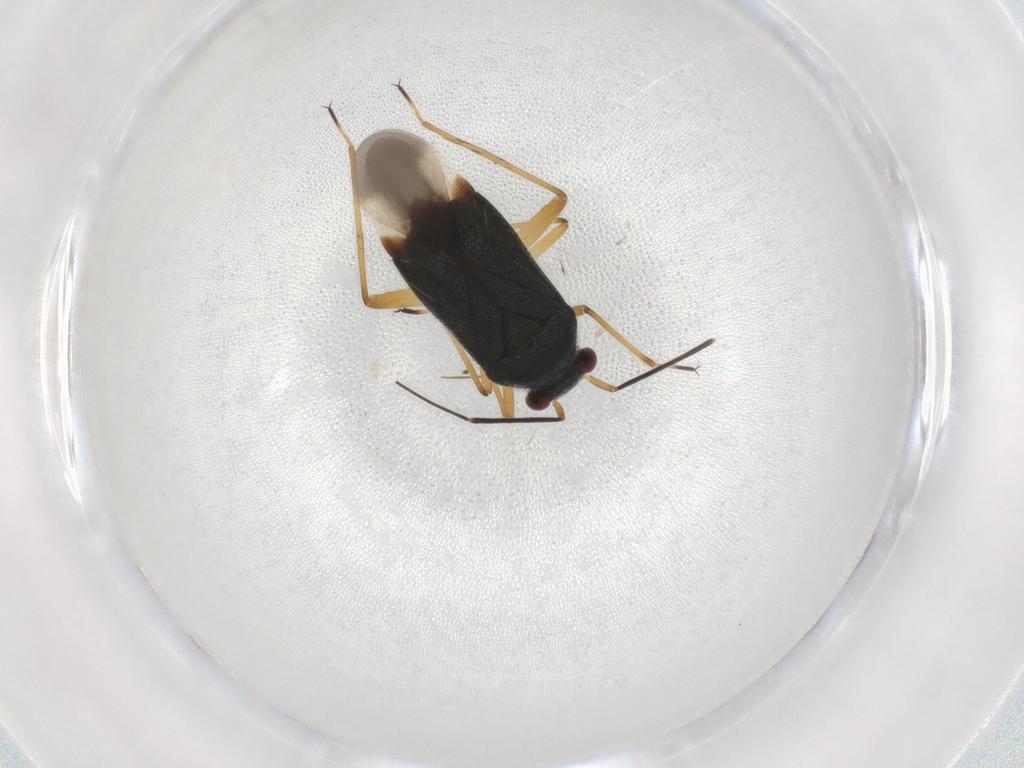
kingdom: Animalia
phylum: Arthropoda
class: Insecta
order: Hemiptera
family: Miridae
